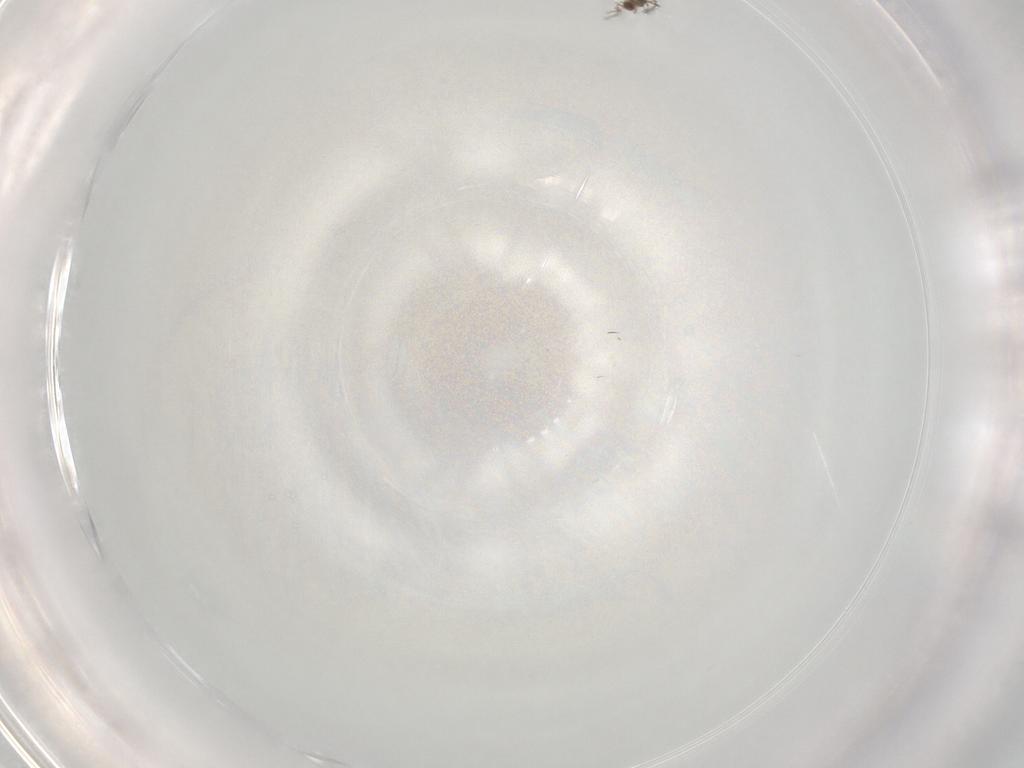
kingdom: Animalia
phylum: Arthropoda
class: Insecta
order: Hymenoptera
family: Mymaridae
